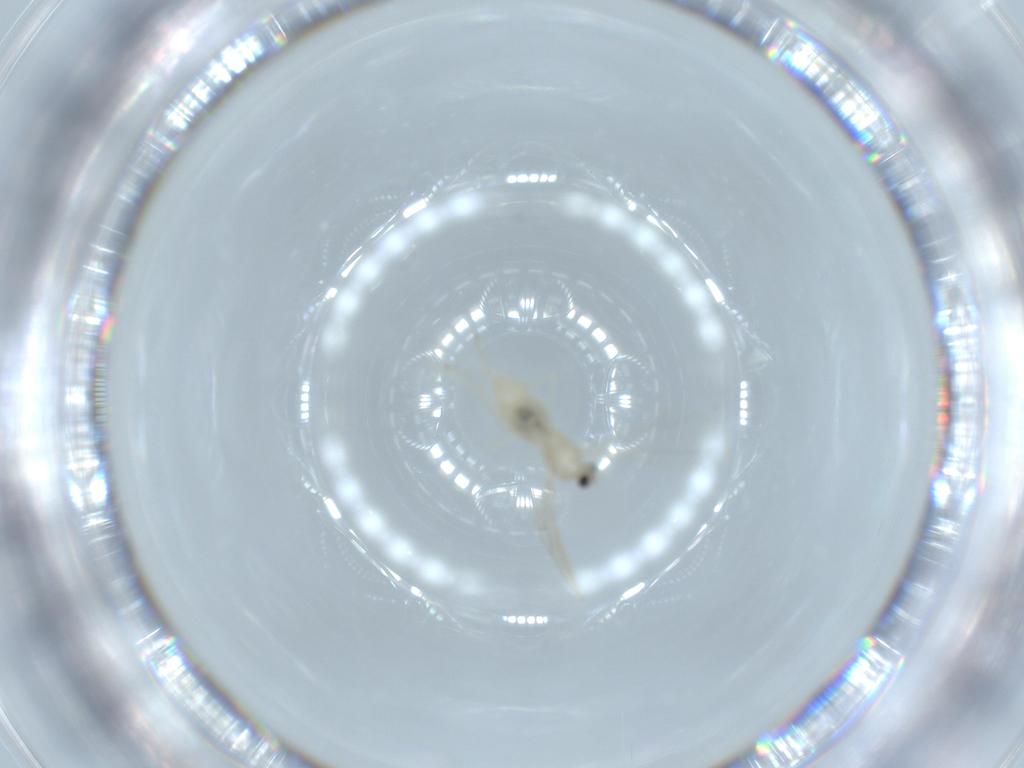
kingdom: Animalia
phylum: Arthropoda
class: Insecta
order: Diptera
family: Cecidomyiidae
